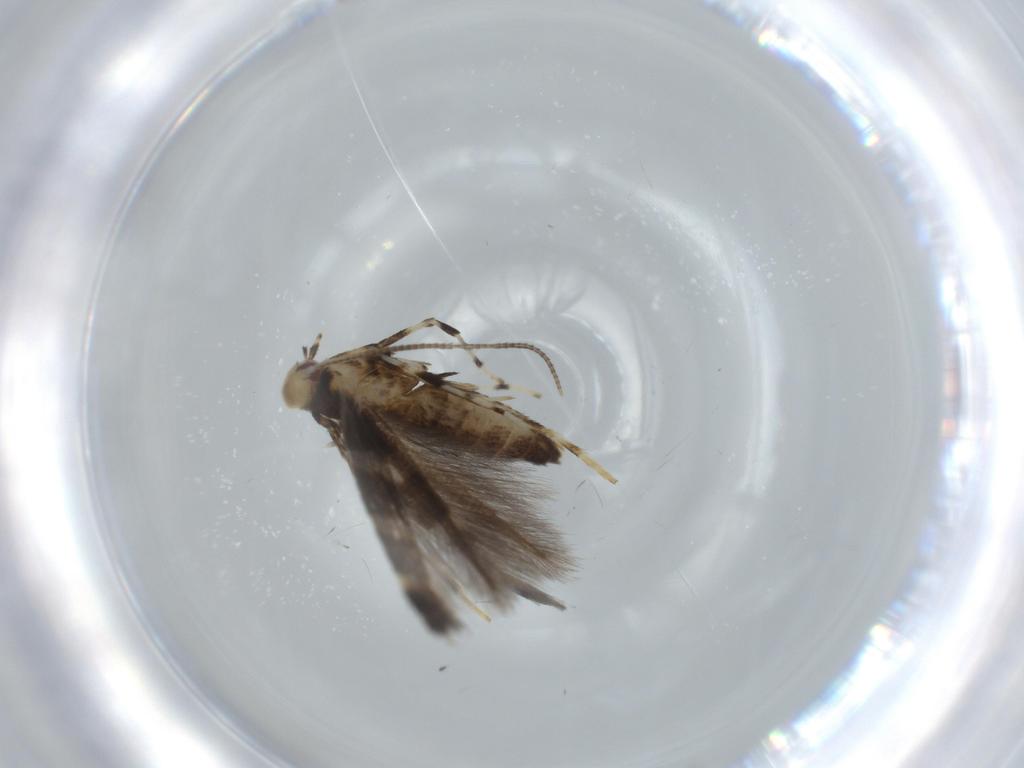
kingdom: Animalia
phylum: Arthropoda
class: Insecta
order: Lepidoptera
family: Gracillariidae
